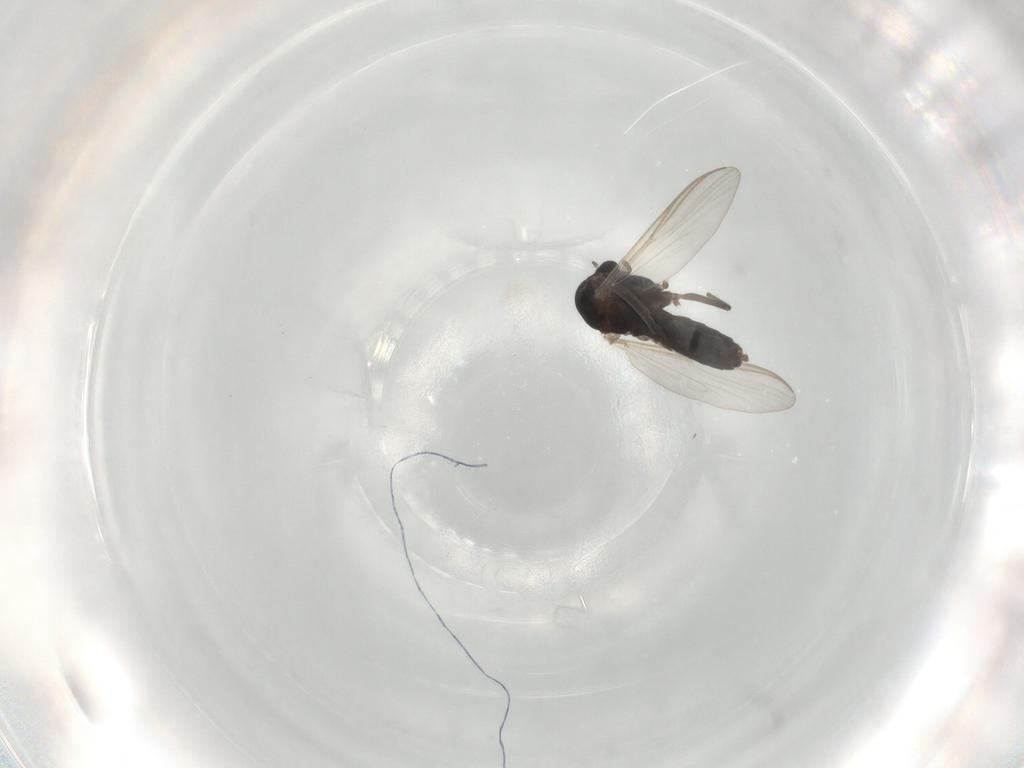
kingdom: Animalia
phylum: Arthropoda
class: Insecta
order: Diptera
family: Chironomidae
